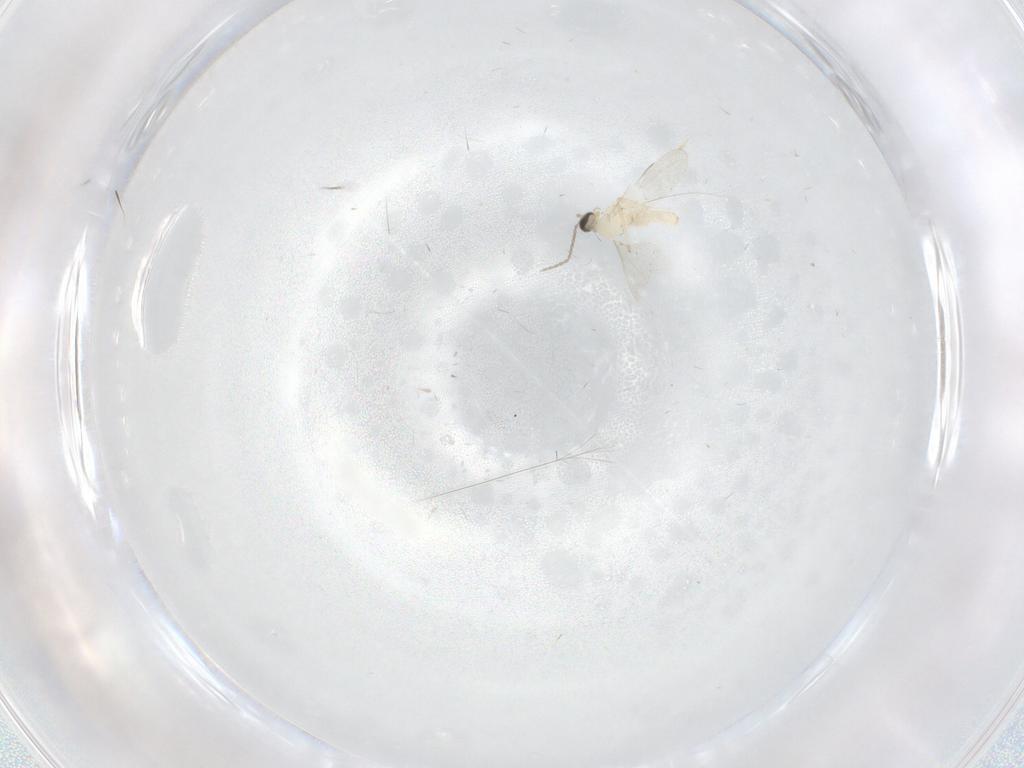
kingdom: Animalia
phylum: Arthropoda
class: Insecta
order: Diptera
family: Cecidomyiidae
